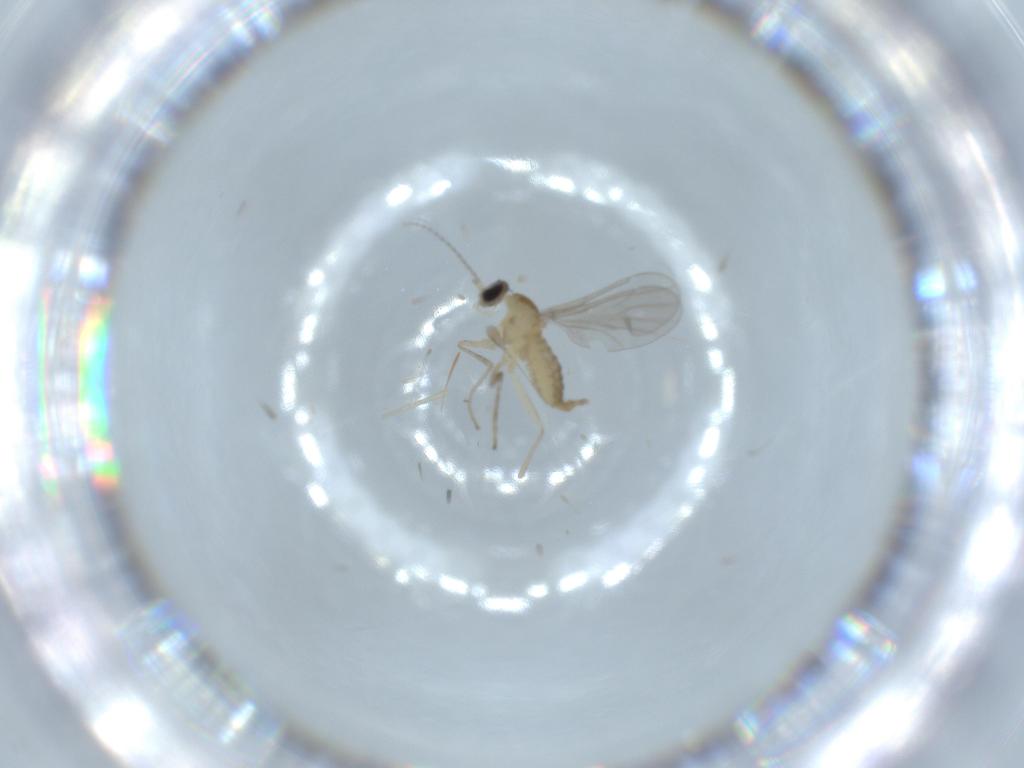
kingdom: Animalia
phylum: Arthropoda
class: Insecta
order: Diptera
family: Cecidomyiidae
